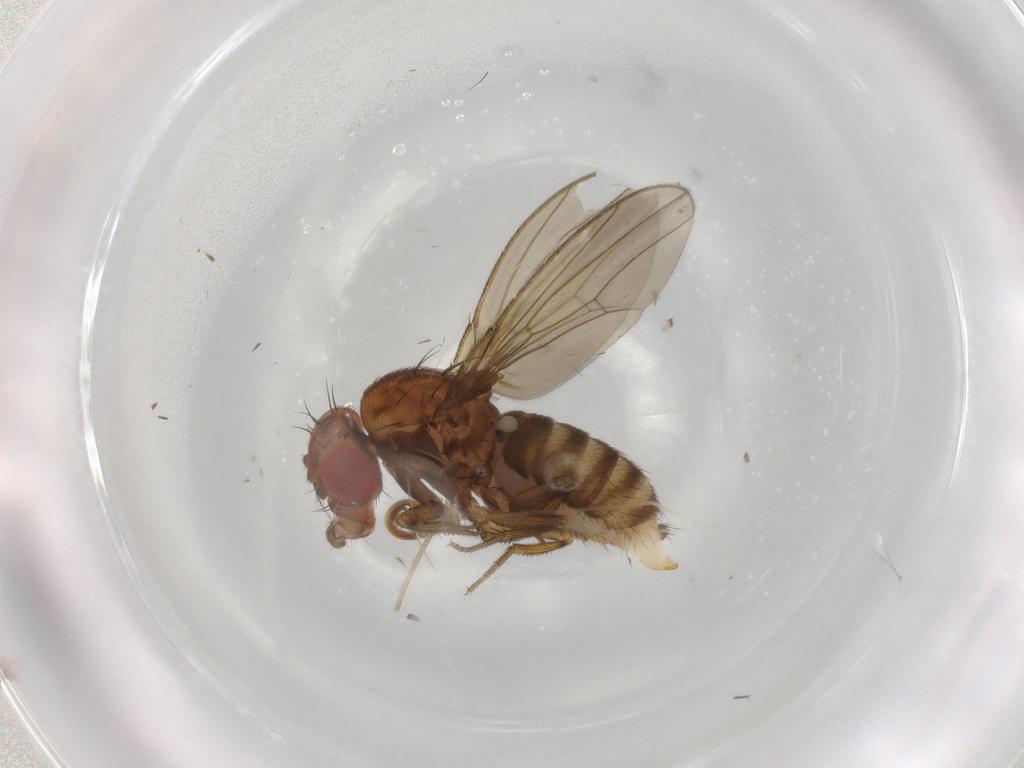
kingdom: Animalia
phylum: Arthropoda
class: Insecta
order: Diptera
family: Drosophilidae
